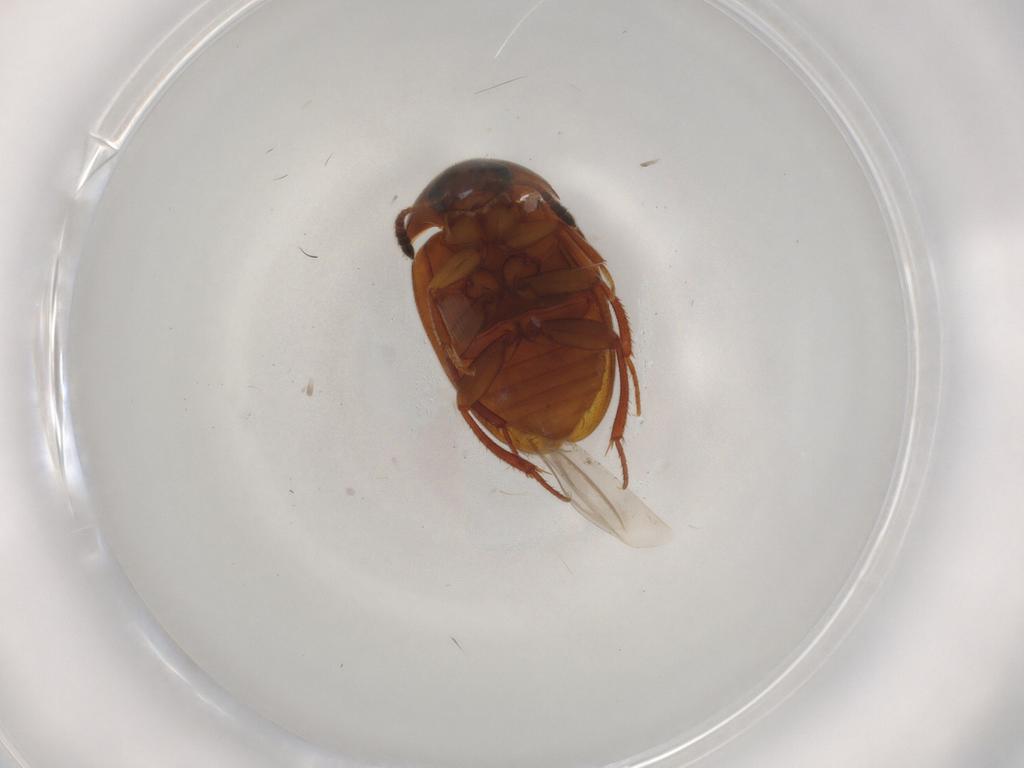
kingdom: Animalia
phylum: Arthropoda
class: Insecta
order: Coleoptera
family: Leiodidae
